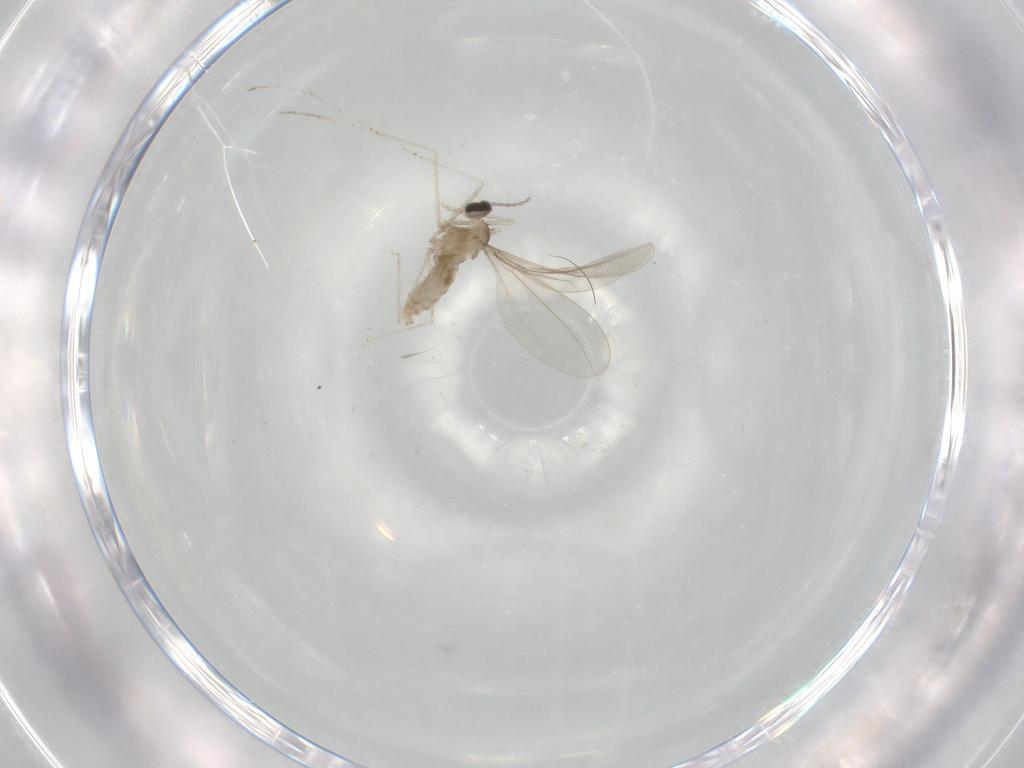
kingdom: Animalia
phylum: Arthropoda
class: Insecta
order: Diptera
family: Cecidomyiidae
